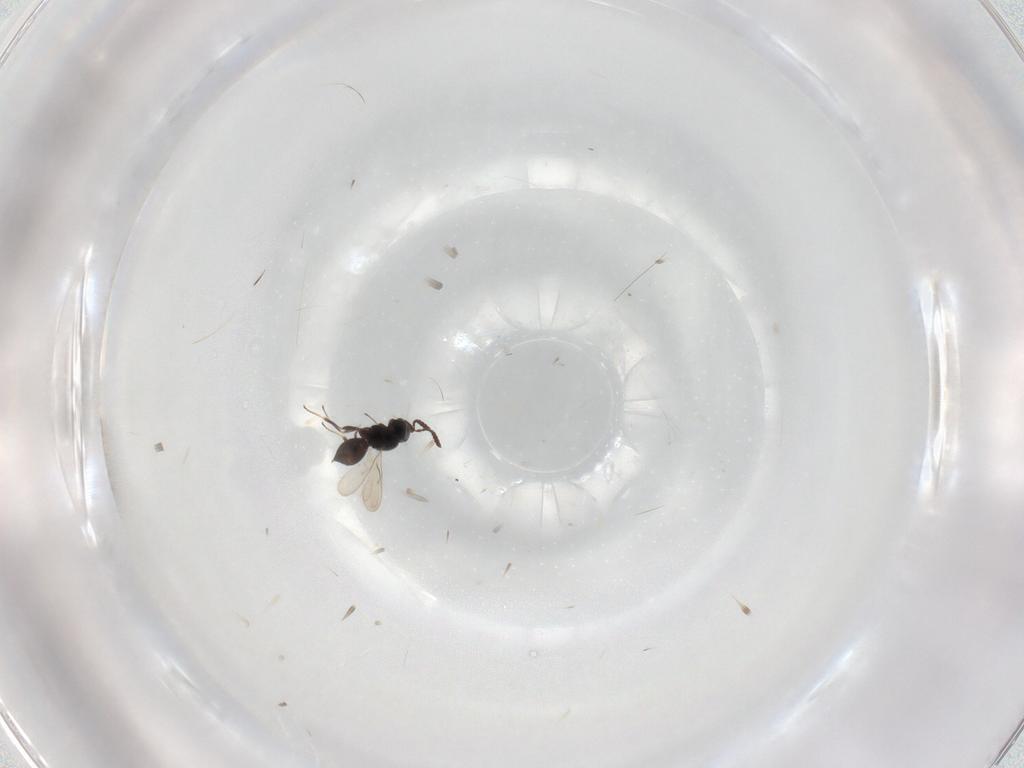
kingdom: Animalia
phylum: Arthropoda
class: Insecta
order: Hymenoptera
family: Scelionidae
